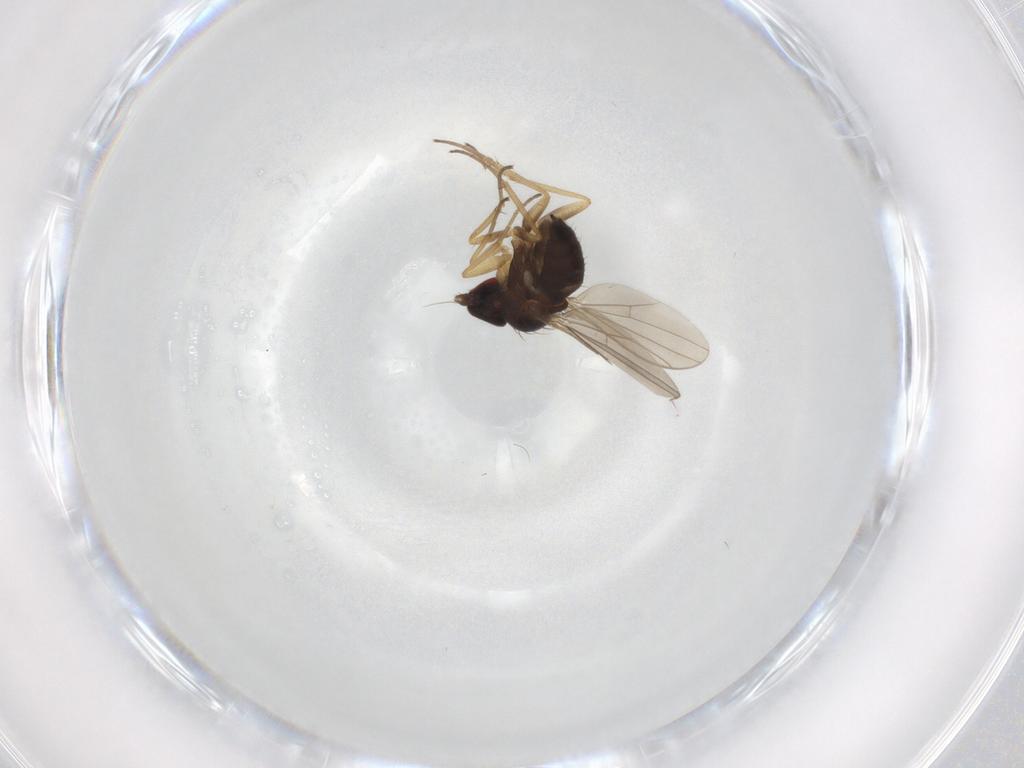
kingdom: Animalia
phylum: Arthropoda
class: Insecta
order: Diptera
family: Dolichopodidae
